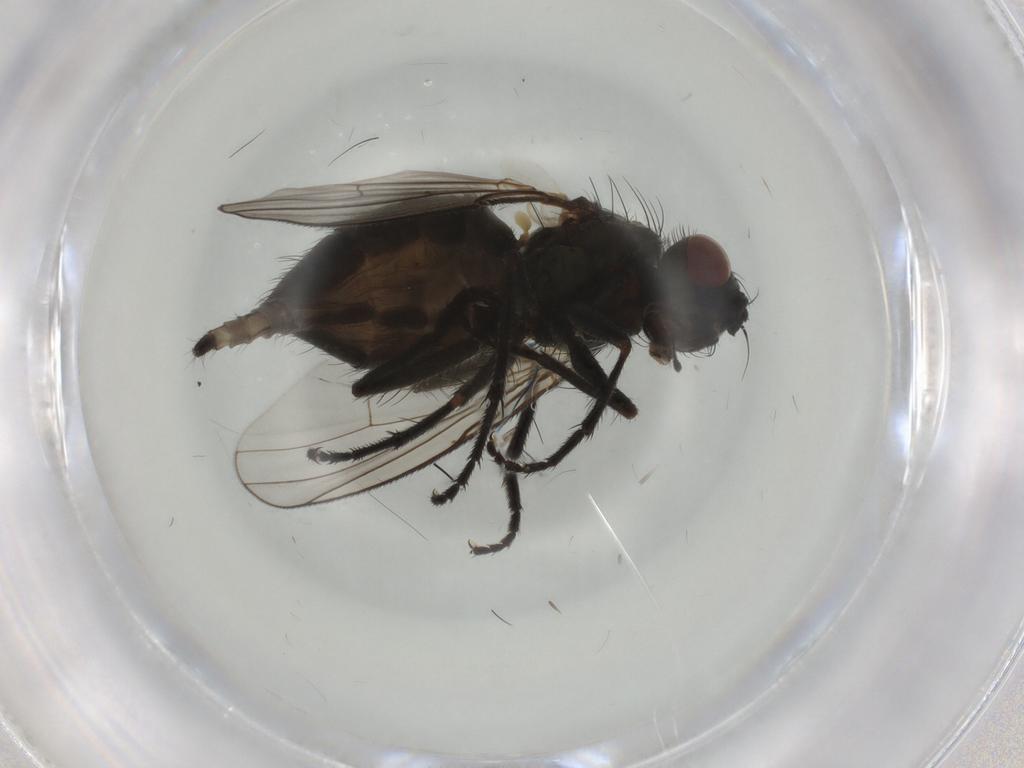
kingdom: Animalia
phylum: Arthropoda
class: Insecta
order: Diptera
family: Muscidae
